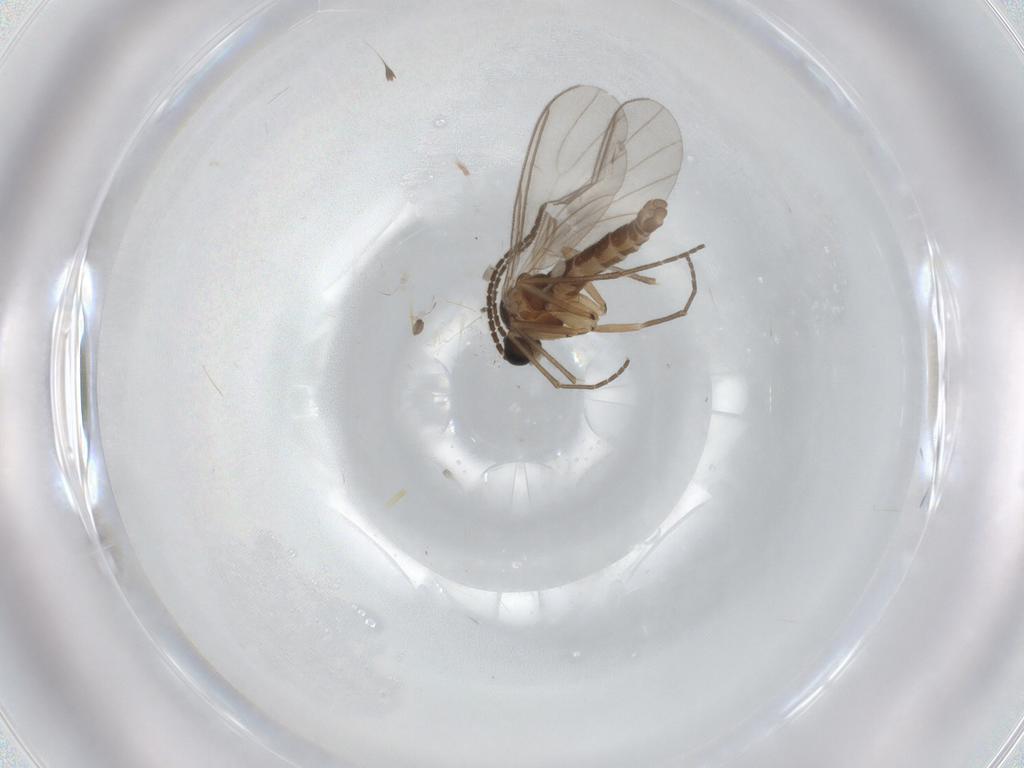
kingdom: Animalia
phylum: Arthropoda
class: Insecta
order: Diptera
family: Sciaridae
